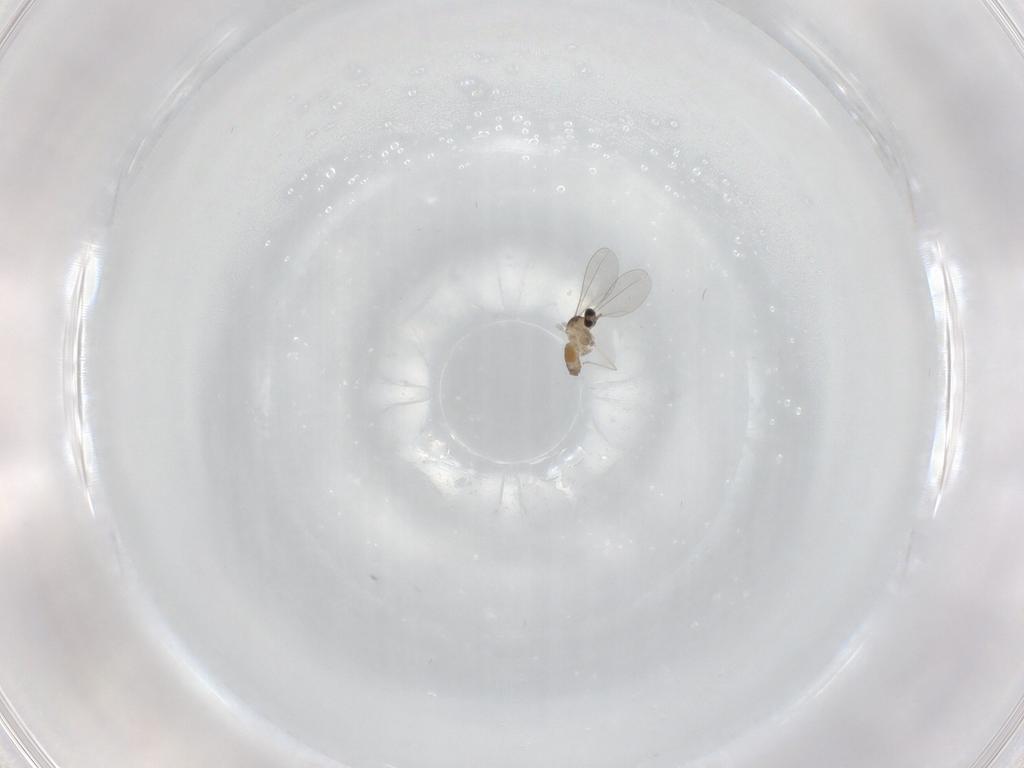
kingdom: Animalia
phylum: Arthropoda
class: Insecta
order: Diptera
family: Cecidomyiidae
